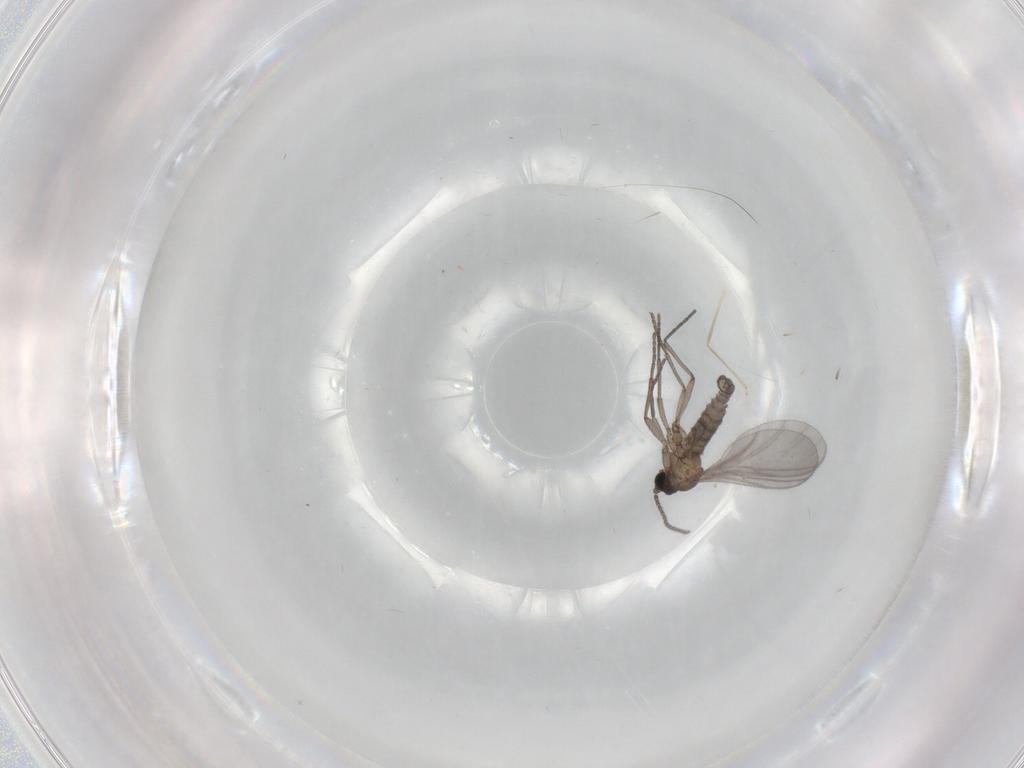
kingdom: Animalia
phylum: Arthropoda
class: Insecta
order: Diptera
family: Sciaridae
